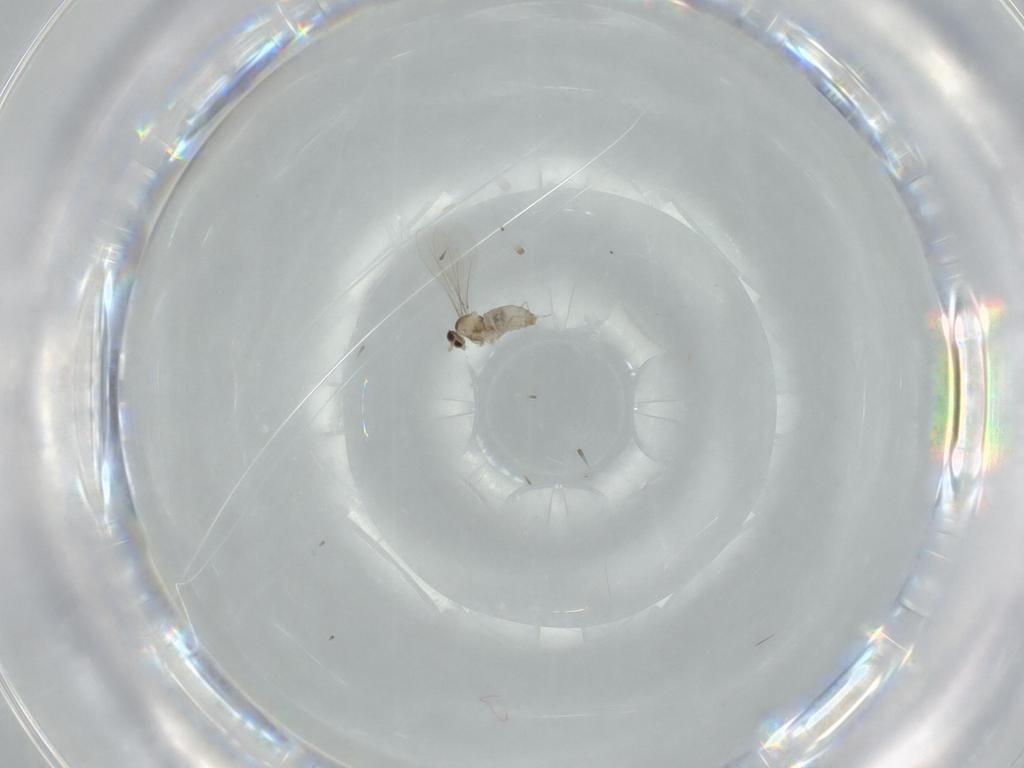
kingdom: Animalia
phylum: Arthropoda
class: Insecta
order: Diptera
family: Cecidomyiidae
